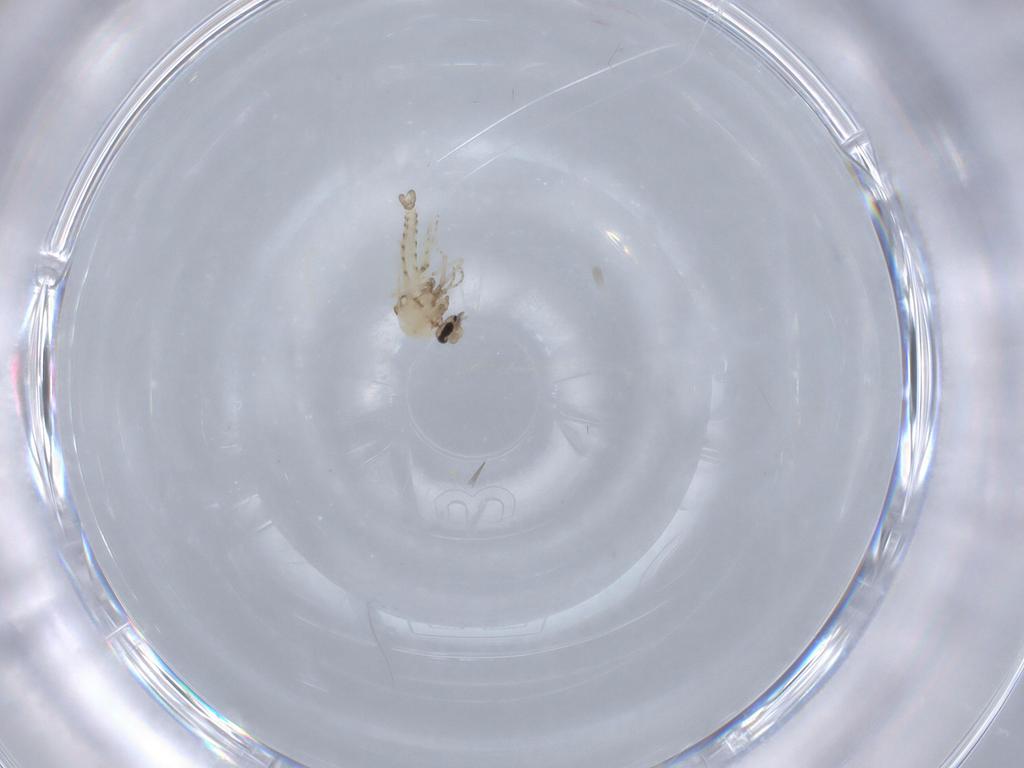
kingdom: Animalia
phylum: Arthropoda
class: Insecta
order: Diptera
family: Ceratopogonidae
